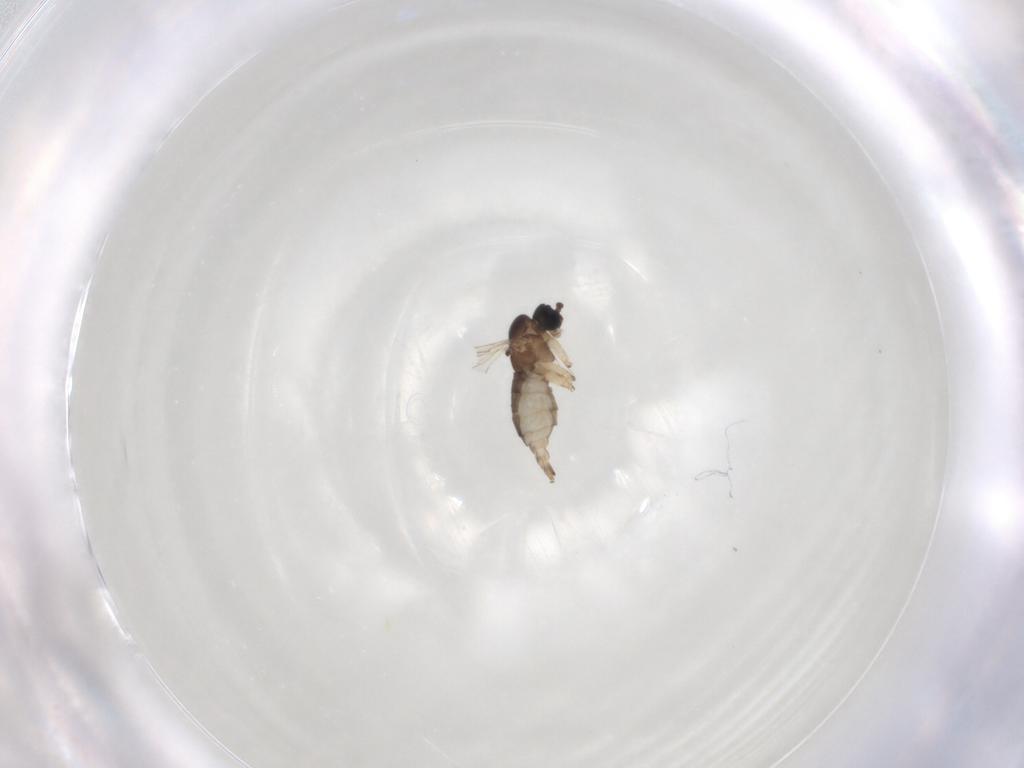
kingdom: Animalia
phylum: Arthropoda
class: Insecta
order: Diptera
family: Sciaridae
